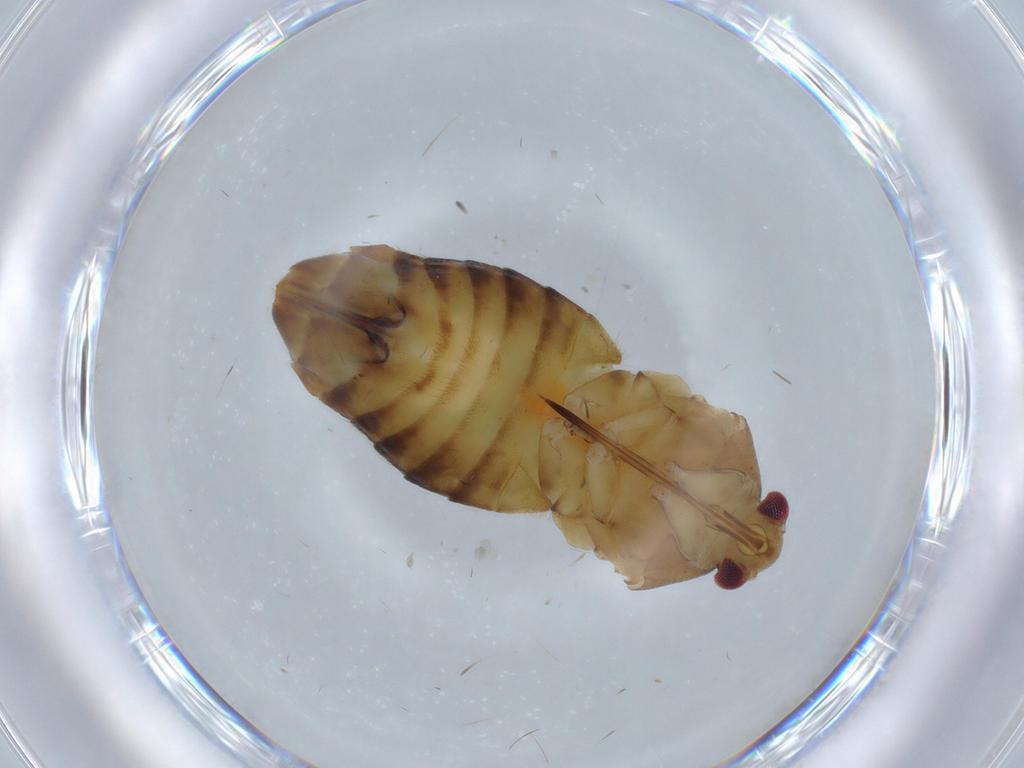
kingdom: Animalia
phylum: Arthropoda
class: Insecta
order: Hemiptera
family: Miridae
